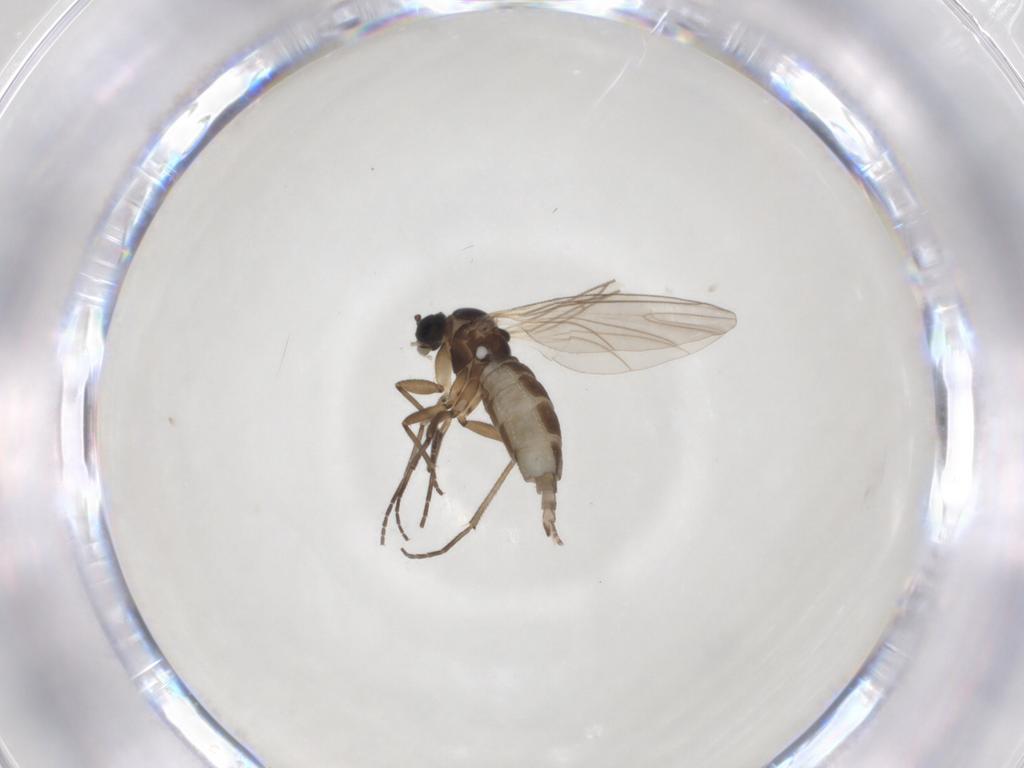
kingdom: Animalia
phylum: Arthropoda
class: Insecta
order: Diptera
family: Chironomidae
